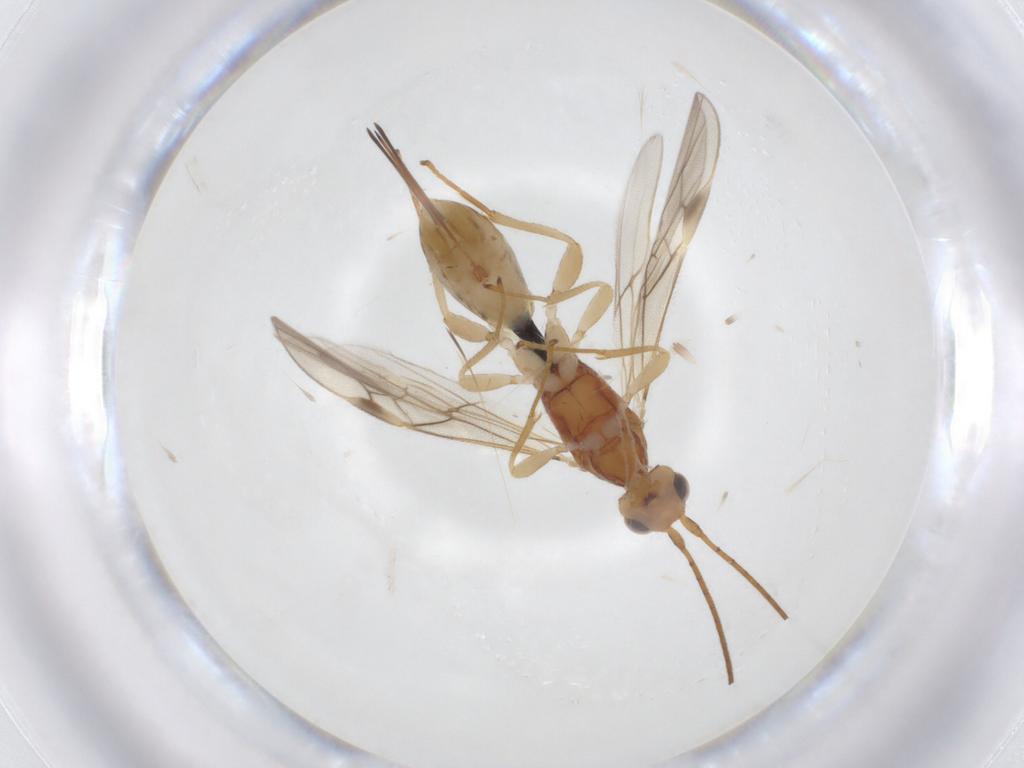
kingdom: Animalia
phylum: Arthropoda
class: Insecta
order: Hymenoptera
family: Braconidae
